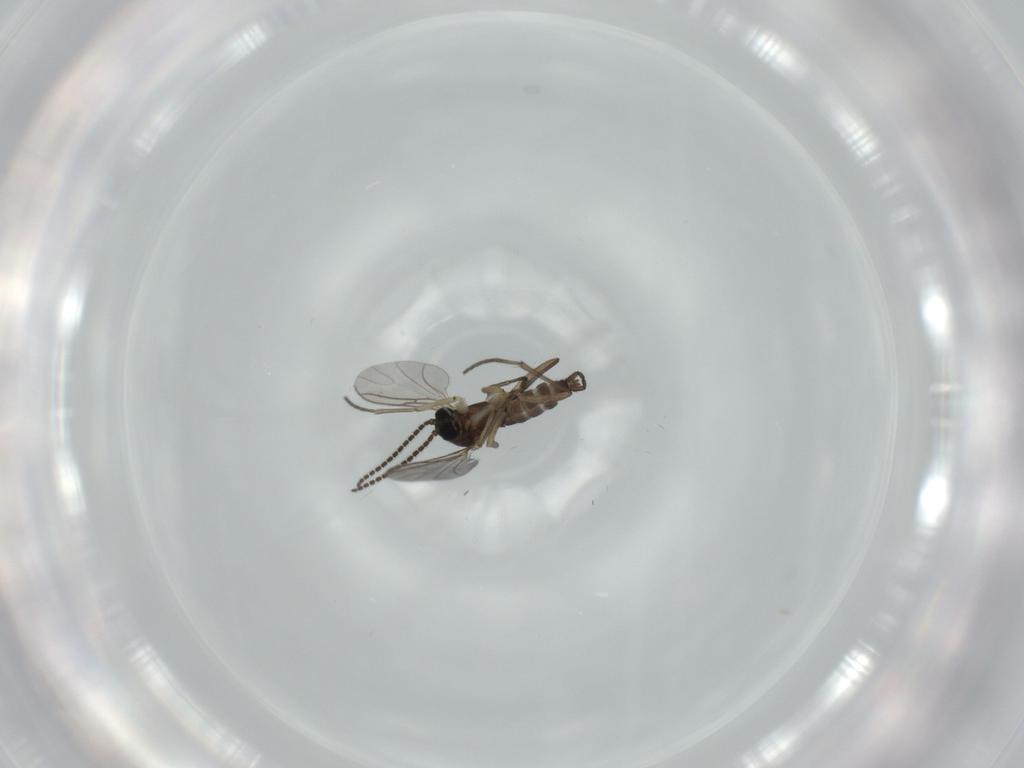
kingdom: Animalia
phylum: Arthropoda
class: Insecta
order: Diptera
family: Sciaridae
